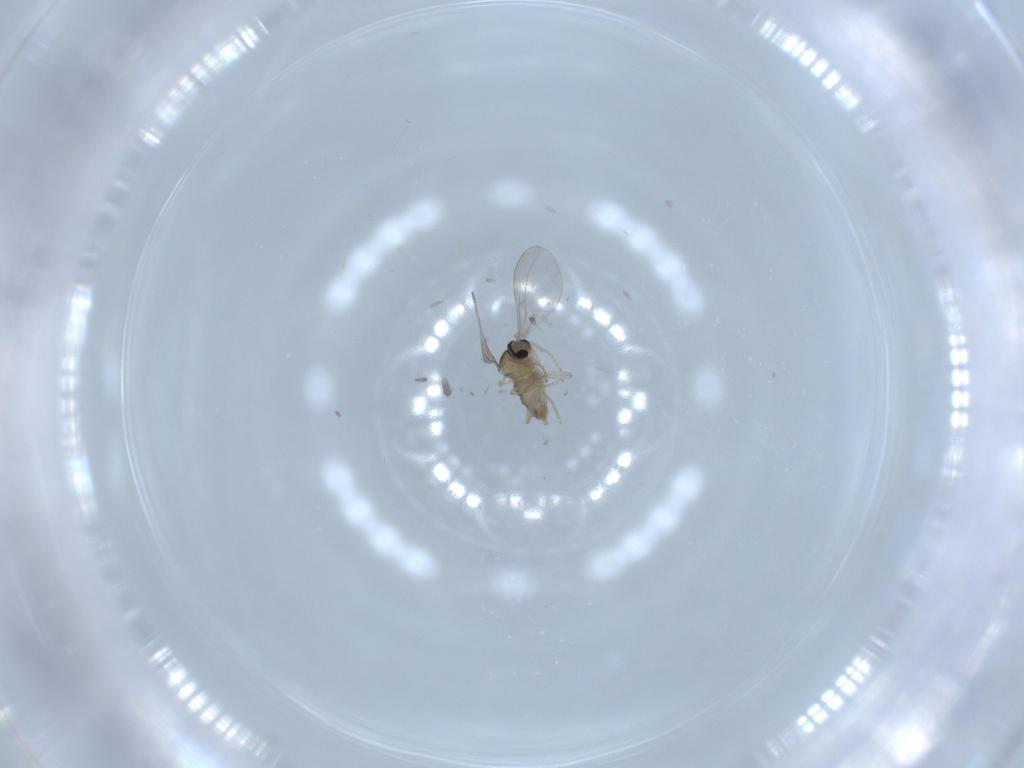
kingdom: Animalia
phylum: Arthropoda
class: Insecta
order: Diptera
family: Cecidomyiidae
